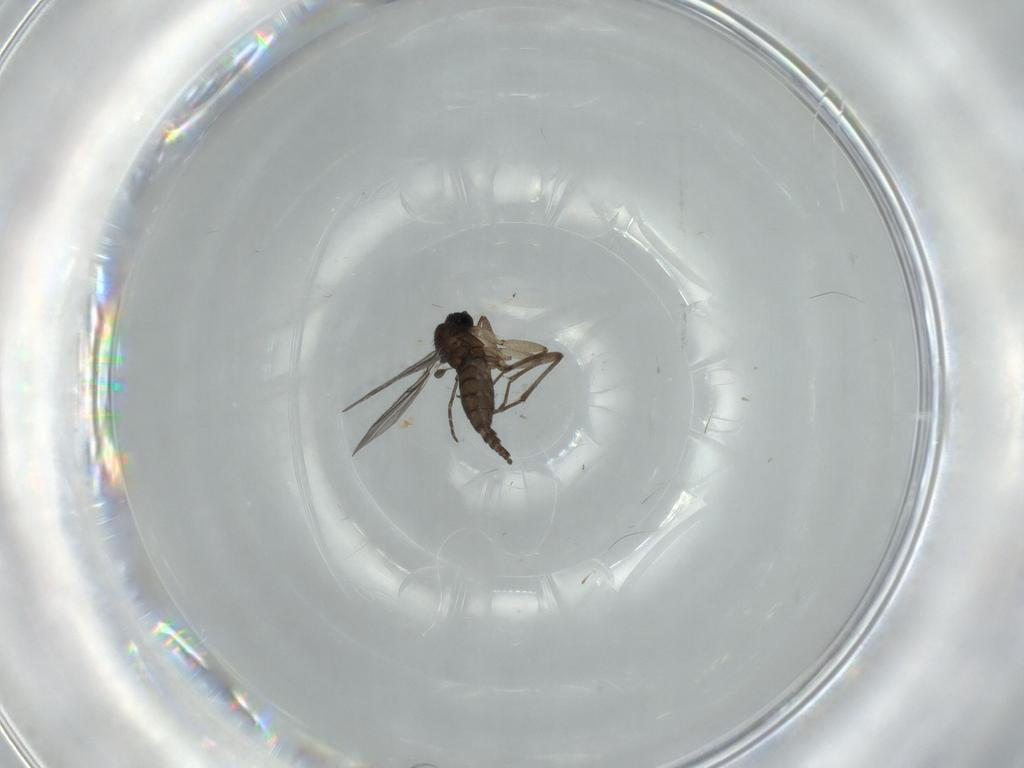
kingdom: Animalia
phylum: Arthropoda
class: Insecta
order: Diptera
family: Sciaridae
